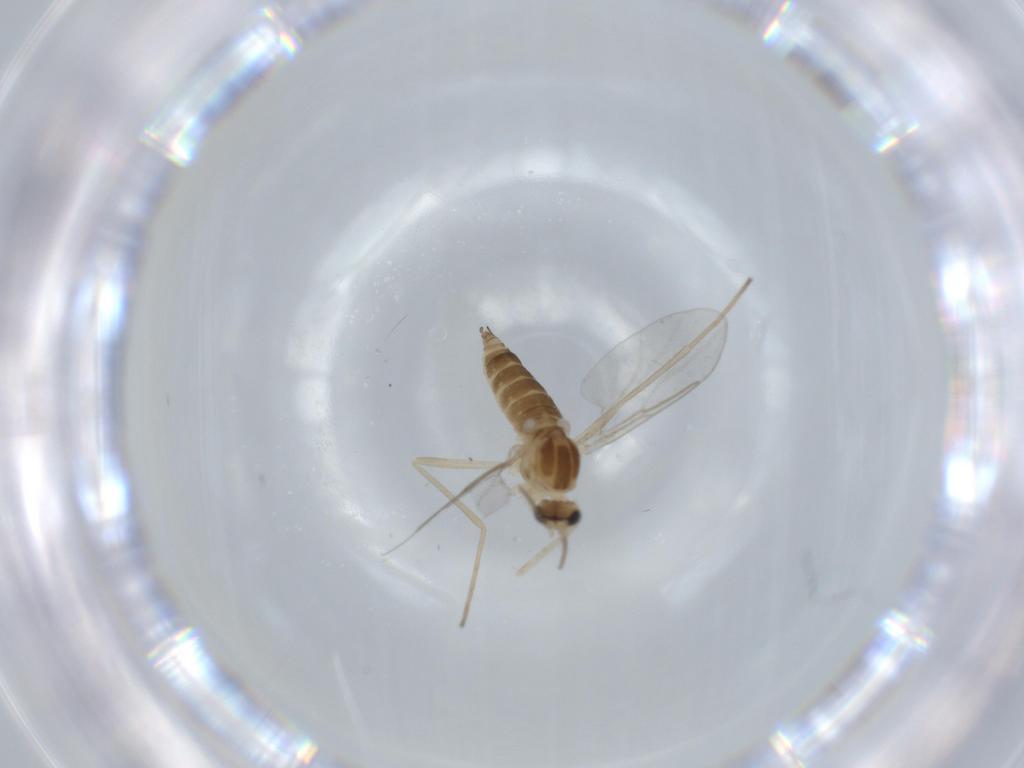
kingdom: Animalia
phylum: Arthropoda
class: Insecta
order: Diptera
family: Cecidomyiidae
